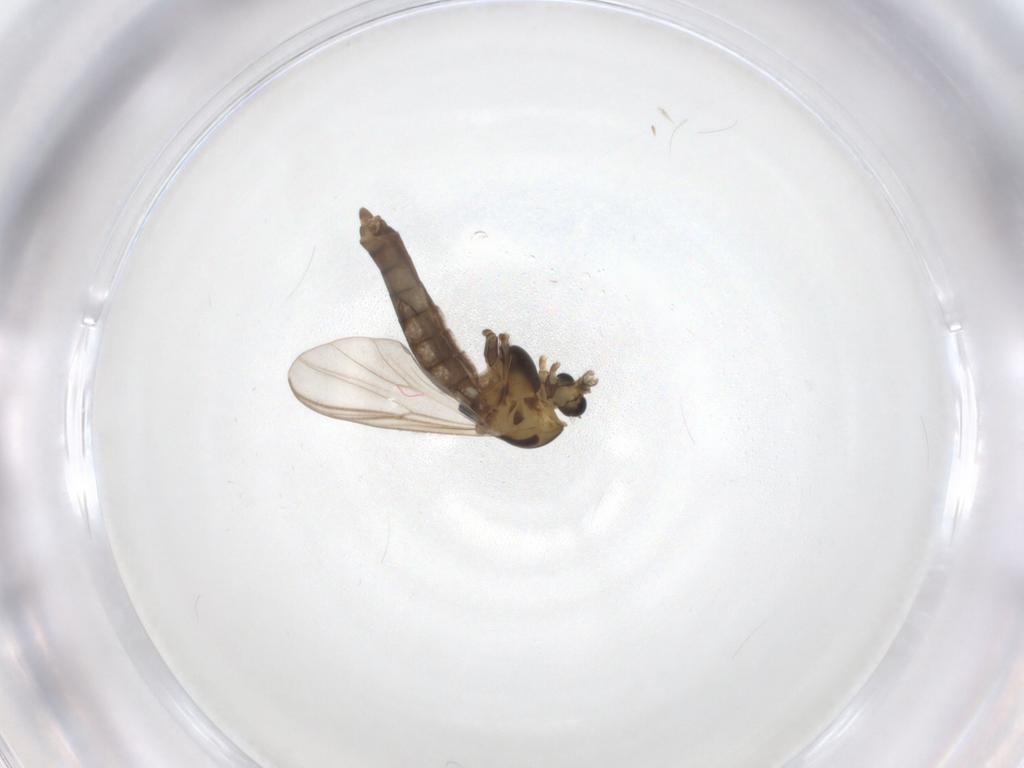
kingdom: Animalia
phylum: Arthropoda
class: Insecta
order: Diptera
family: Chironomidae
